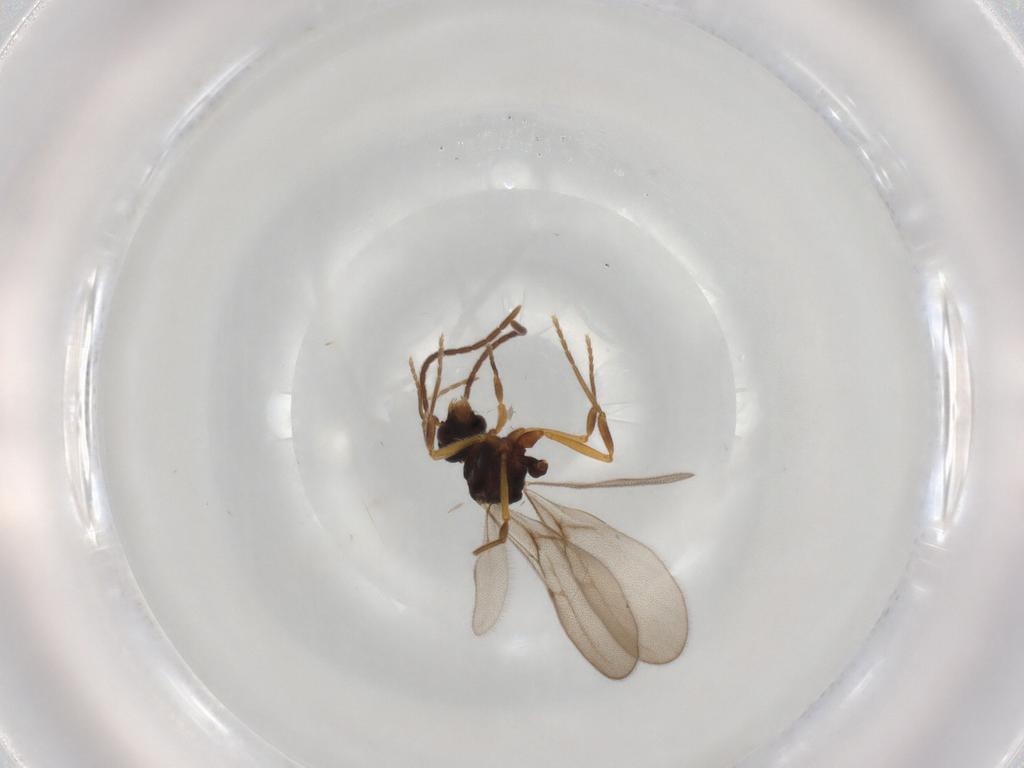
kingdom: Animalia
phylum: Arthropoda
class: Insecta
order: Hymenoptera
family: Formicidae
